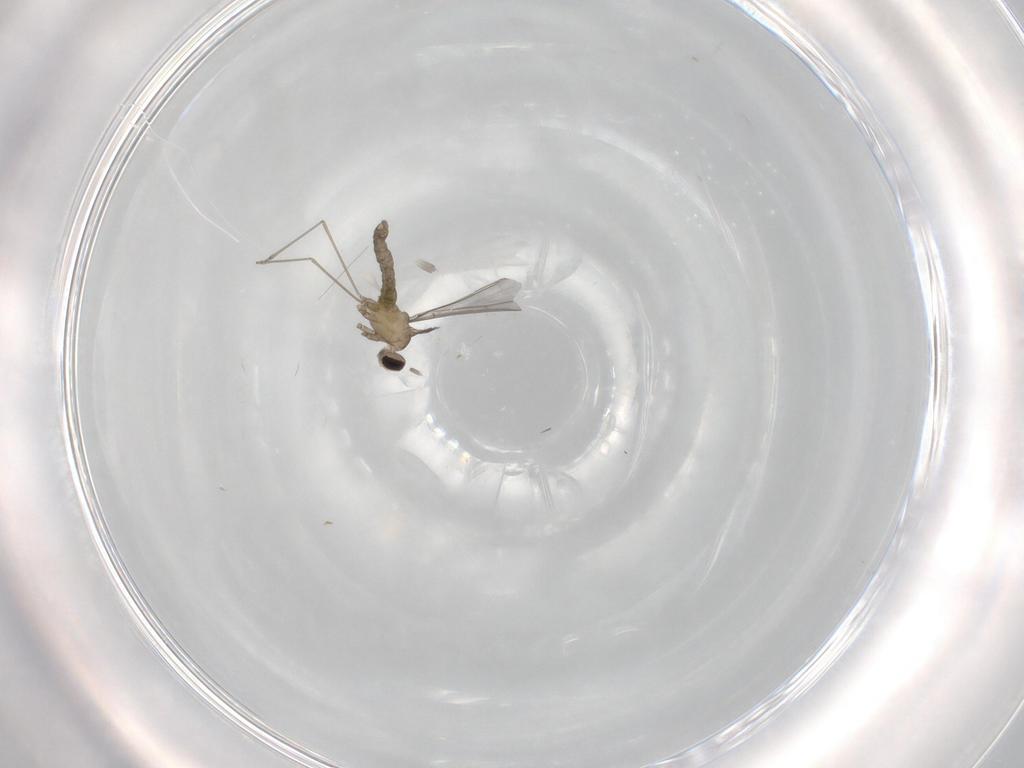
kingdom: Animalia
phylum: Arthropoda
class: Insecta
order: Diptera
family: Cecidomyiidae
